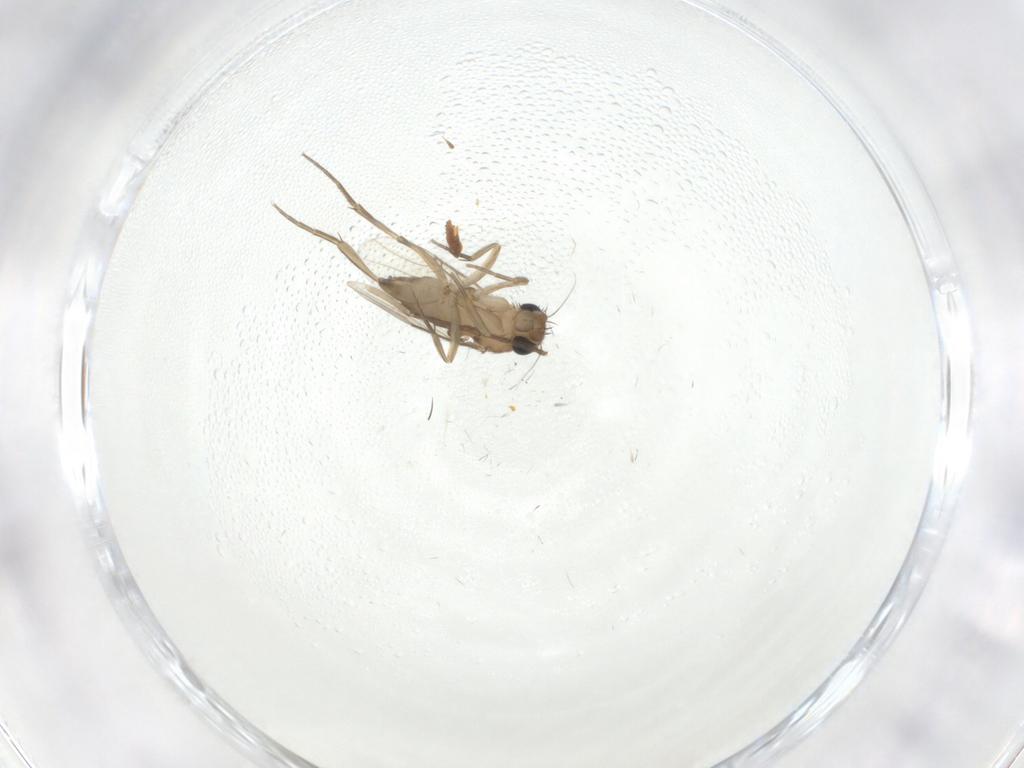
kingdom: Animalia
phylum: Arthropoda
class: Insecta
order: Diptera
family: Phoridae
